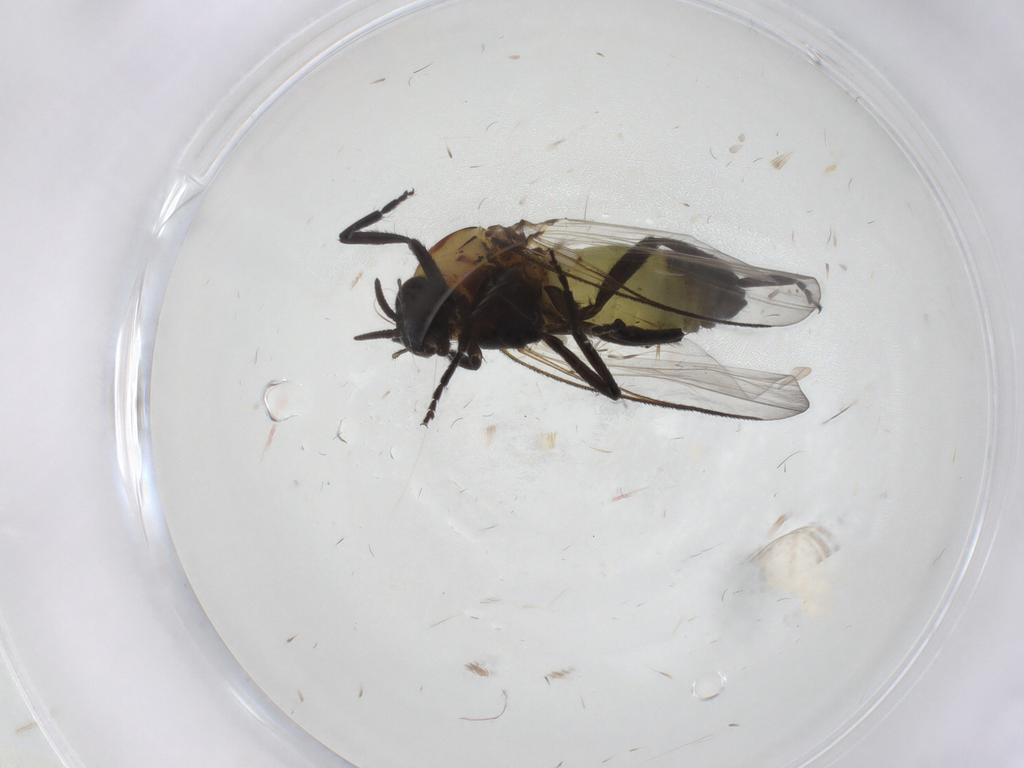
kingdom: Animalia
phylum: Arthropoda
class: Insecta
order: Diptera
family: Simuliidae
